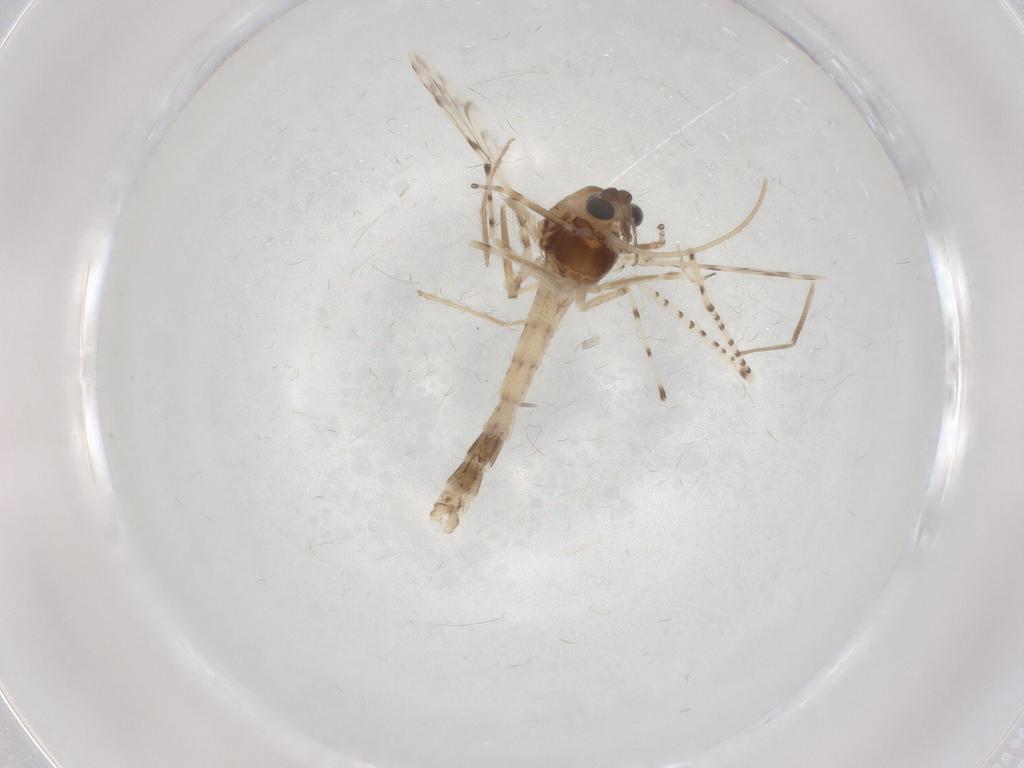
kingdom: Animalia
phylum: Arthropoda
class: Insecta
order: Diptera
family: Chironomidae
